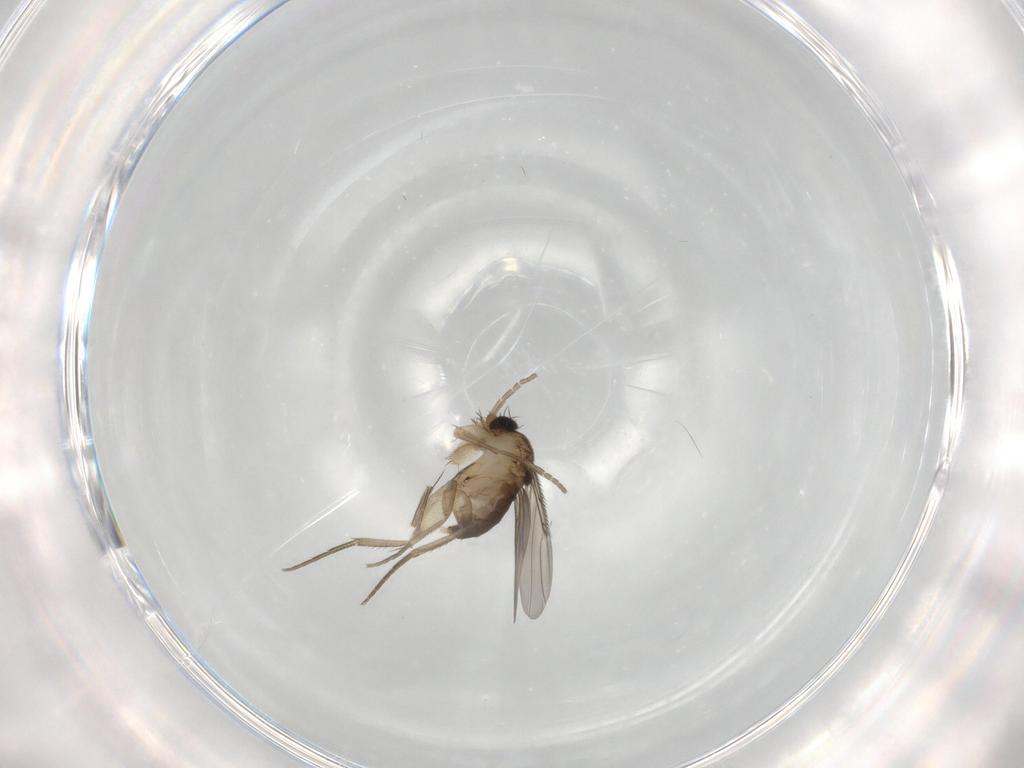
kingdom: Animalia
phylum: Arthropoda
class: Insecta
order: Diptera
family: Phoridae
